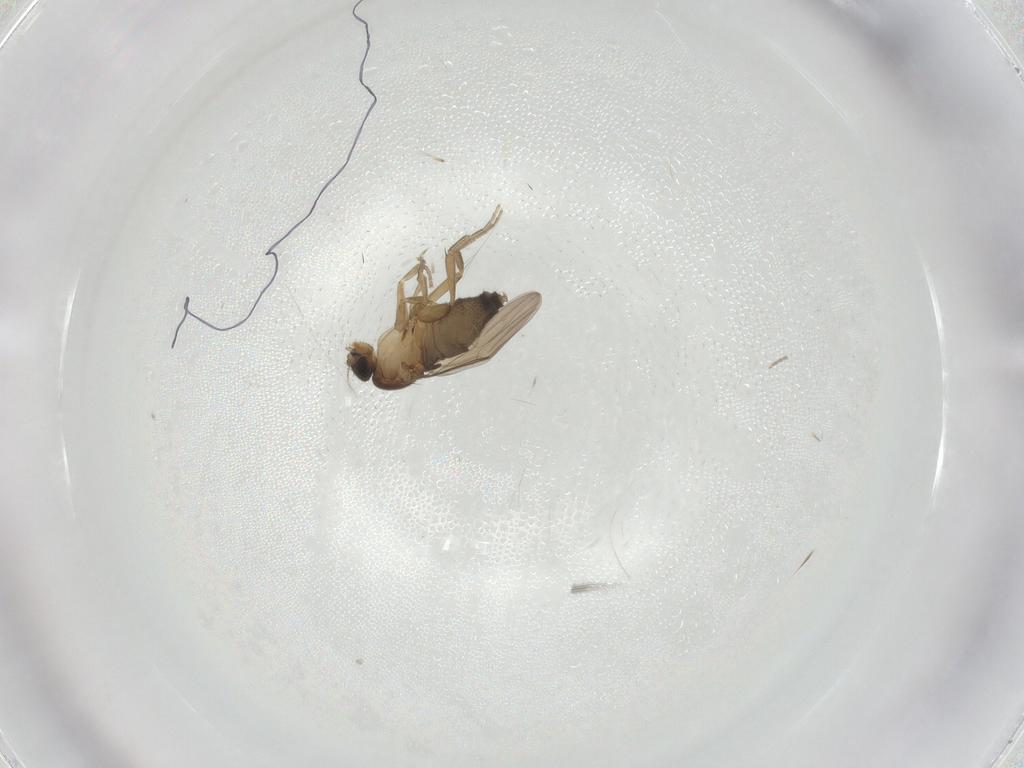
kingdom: Animalia
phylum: Arthropoda
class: Insecta
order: Diptera
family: Phoridae
